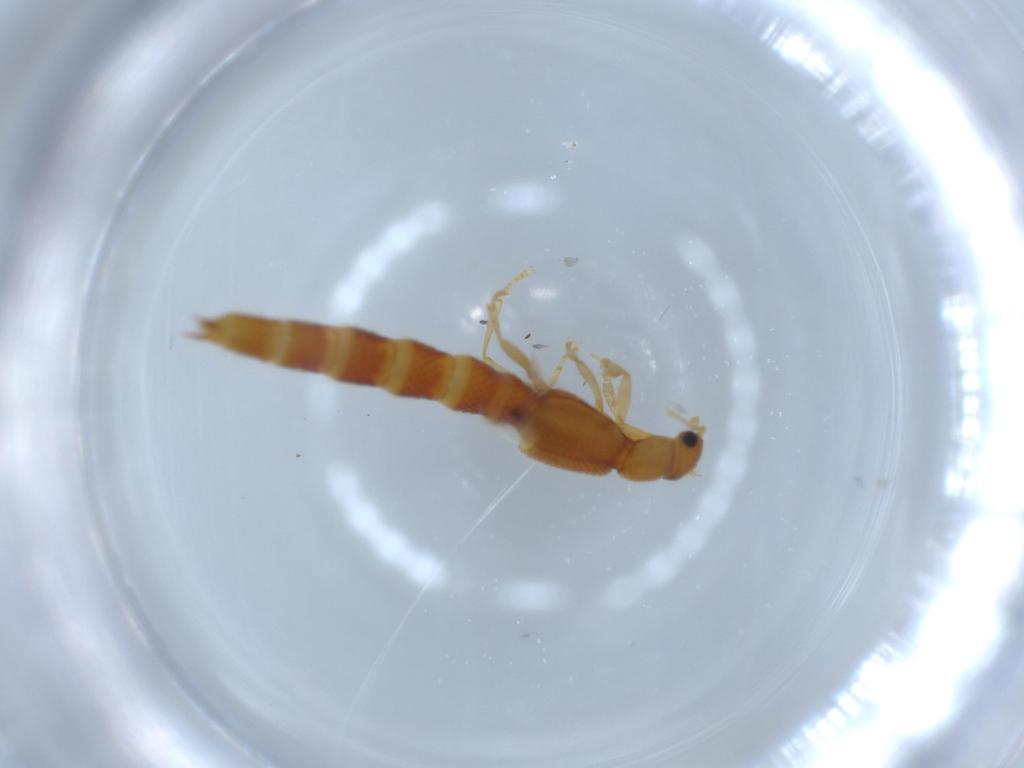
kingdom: Animalia
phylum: Arthropoda
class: Insecta
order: Coleoptera
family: Staphylinidae
